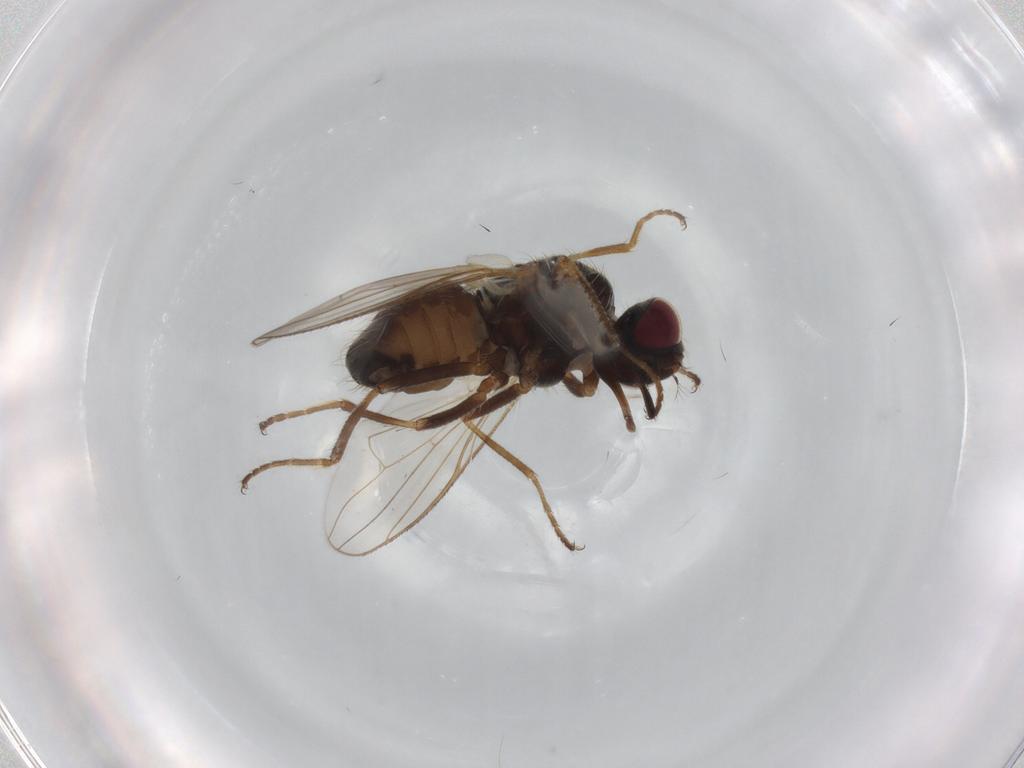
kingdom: Animalia
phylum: Arthropoda
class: Insecta
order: Diptera
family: Muscidae
